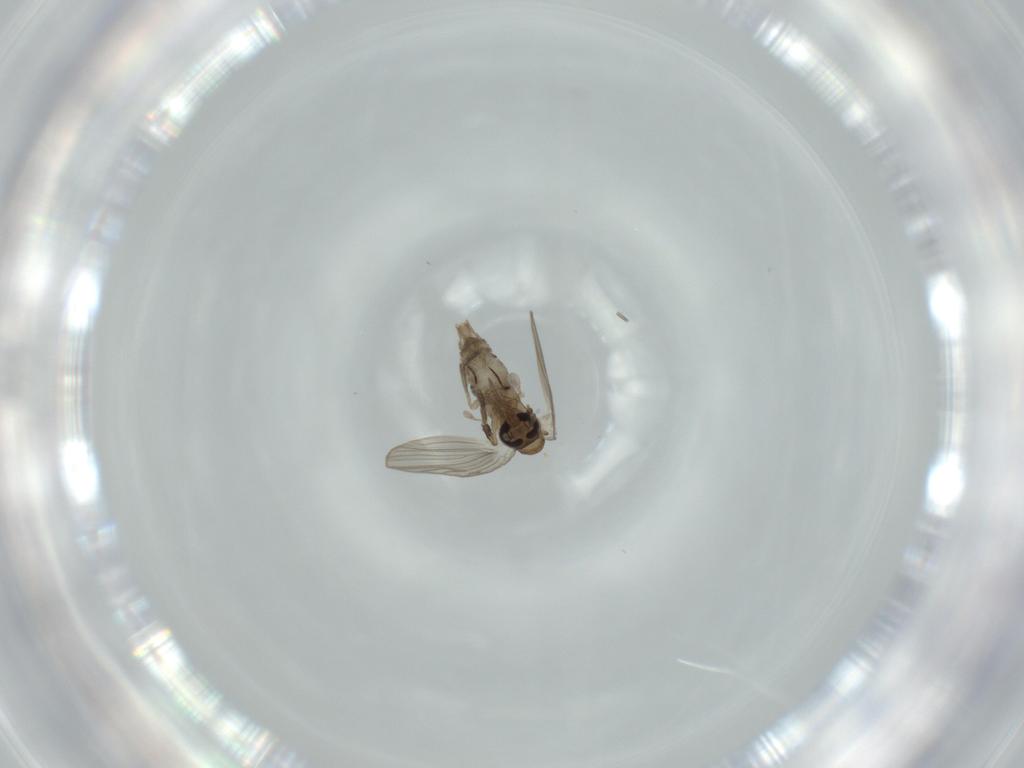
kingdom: Animalia
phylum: Arthropoda
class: Insecta
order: Diptera
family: Psychodidae
